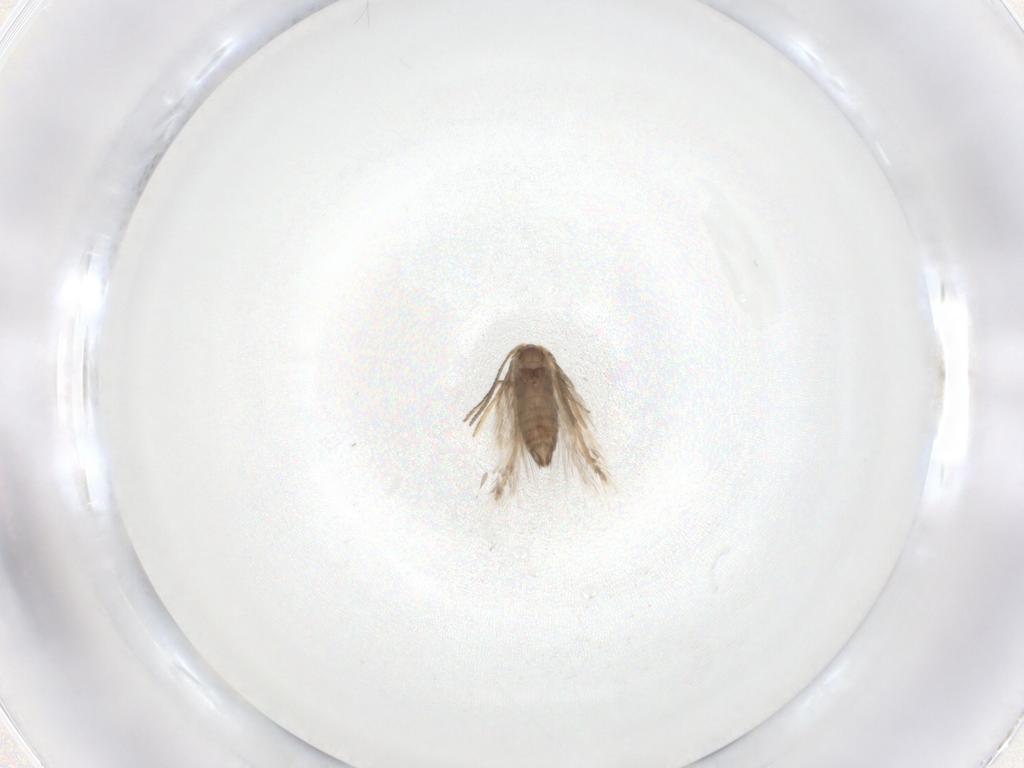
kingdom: Animalia
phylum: Arthropoda
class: Insecta
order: Lepidoptera
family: Nepticulidae
